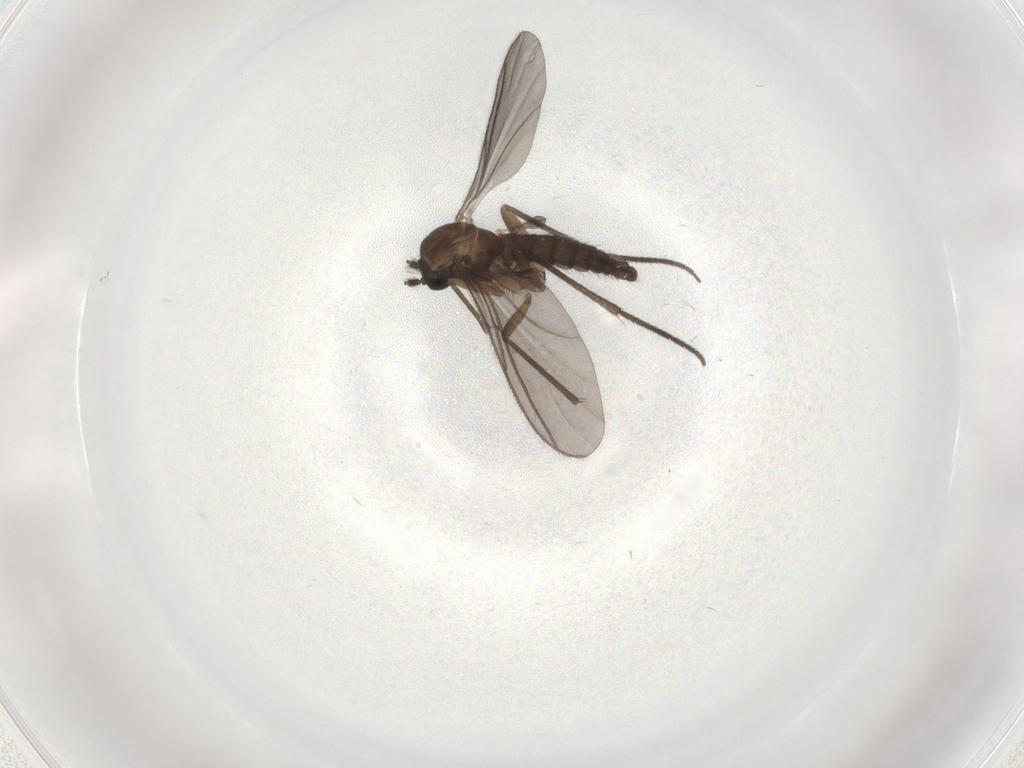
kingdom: Animalia
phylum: Arthropoda
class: Insecta
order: Diptera
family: Sciaridae
